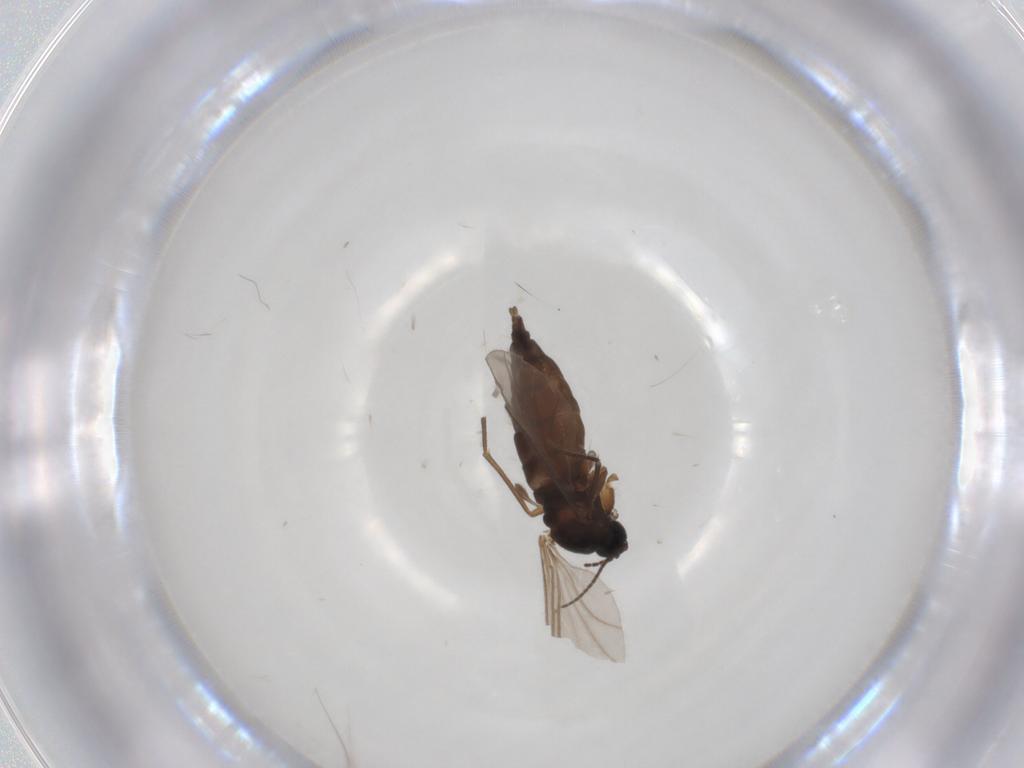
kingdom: Animalia
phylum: Arthropoda
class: Insecta
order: Diptera
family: Sciaridae
